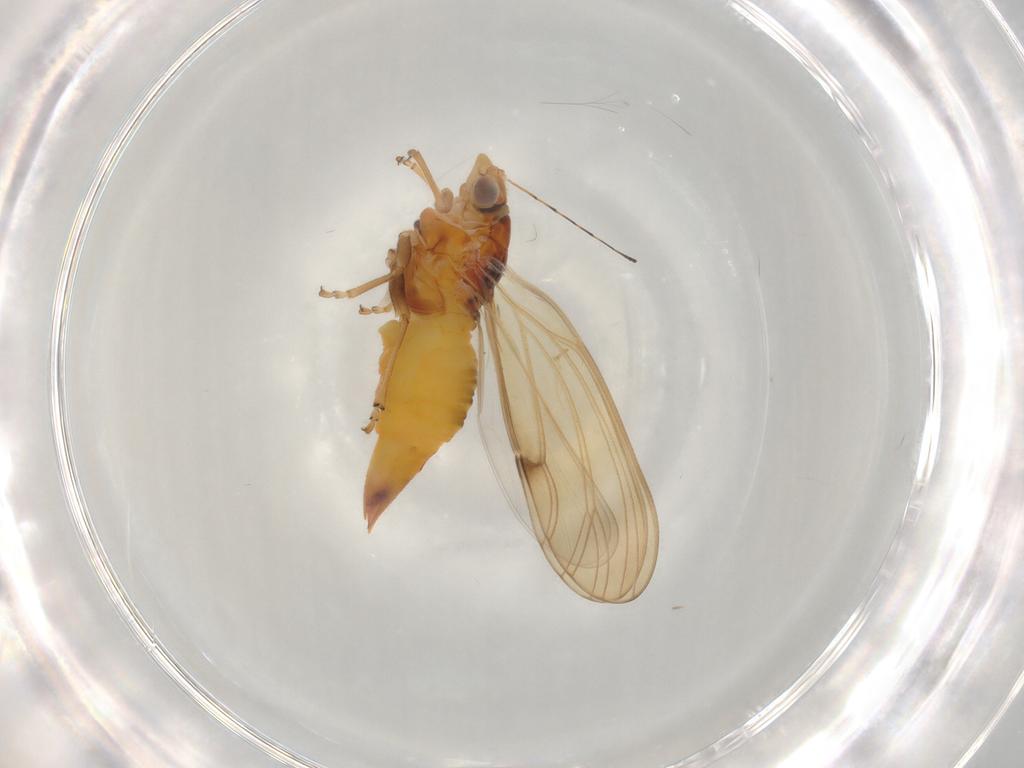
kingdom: Animalia
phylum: Arthropoda
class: Insecta
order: Hemiptera
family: Psylloidea_incertae_sedis
